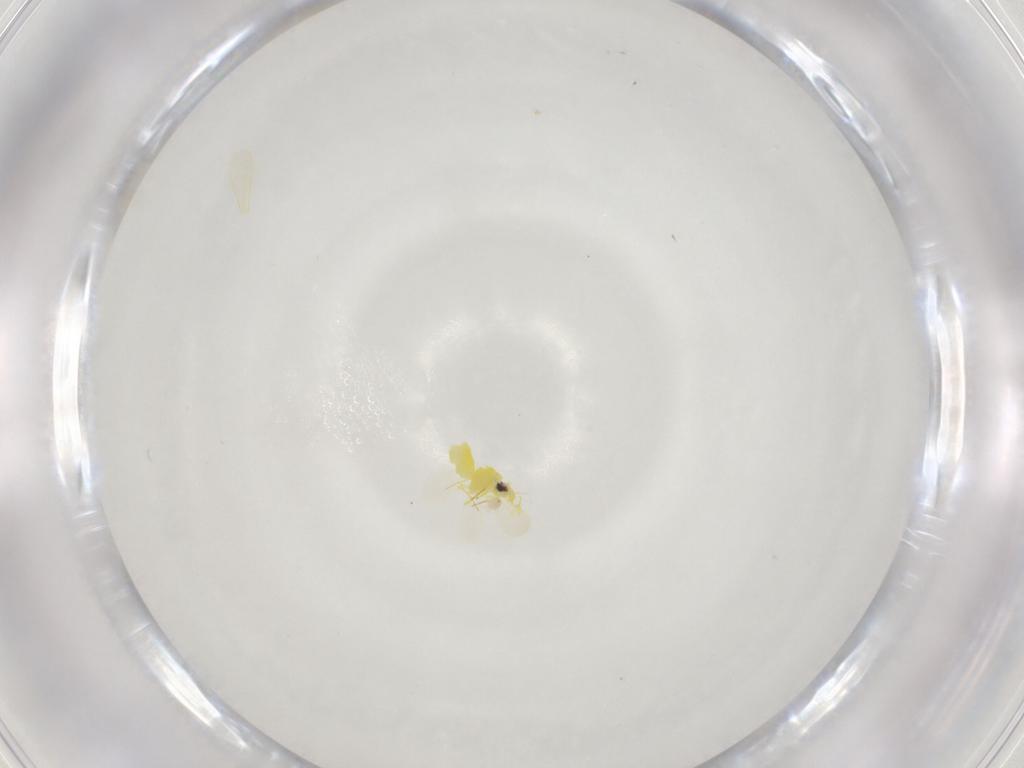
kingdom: Animalia
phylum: Arthropoda
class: Insecta
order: Hemiptera
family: Aleyrodidae
